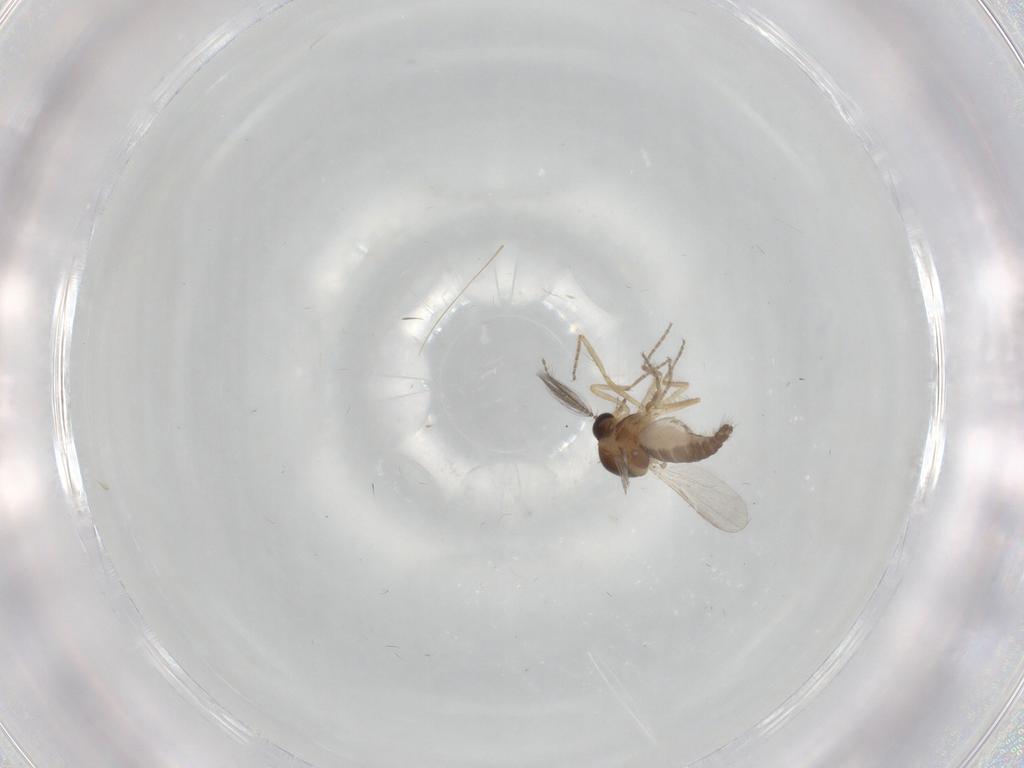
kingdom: Animalia
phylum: Arthropoda
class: Insecta
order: Diptera
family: Ceratopogonidae
